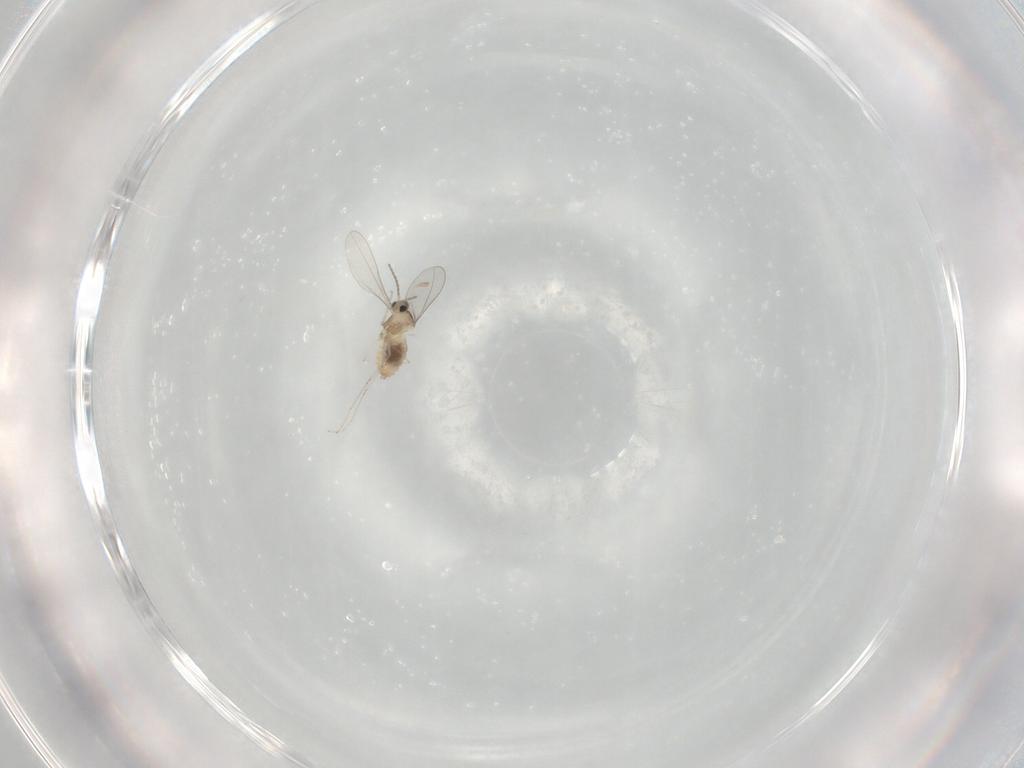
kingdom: Animalia
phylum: Arthropoda
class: Insecta
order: Diptera
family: Cecidomyiidae
